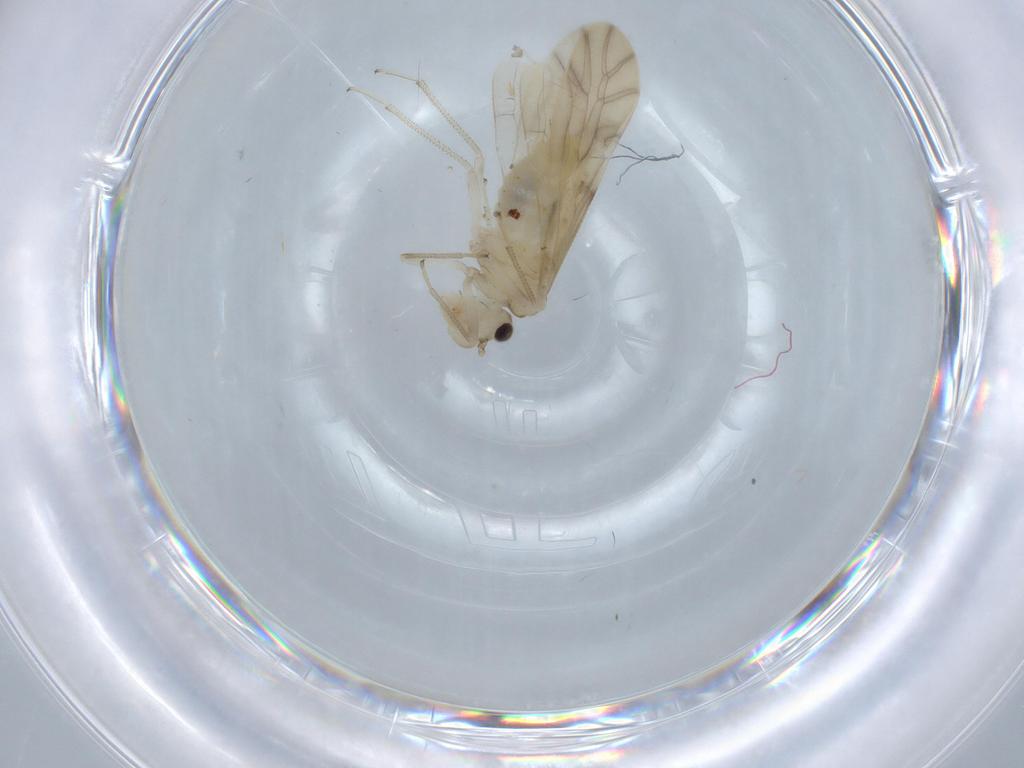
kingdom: Animalia
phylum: Arthropoda
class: Insecta
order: Psocodea
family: Caeciliusidae
